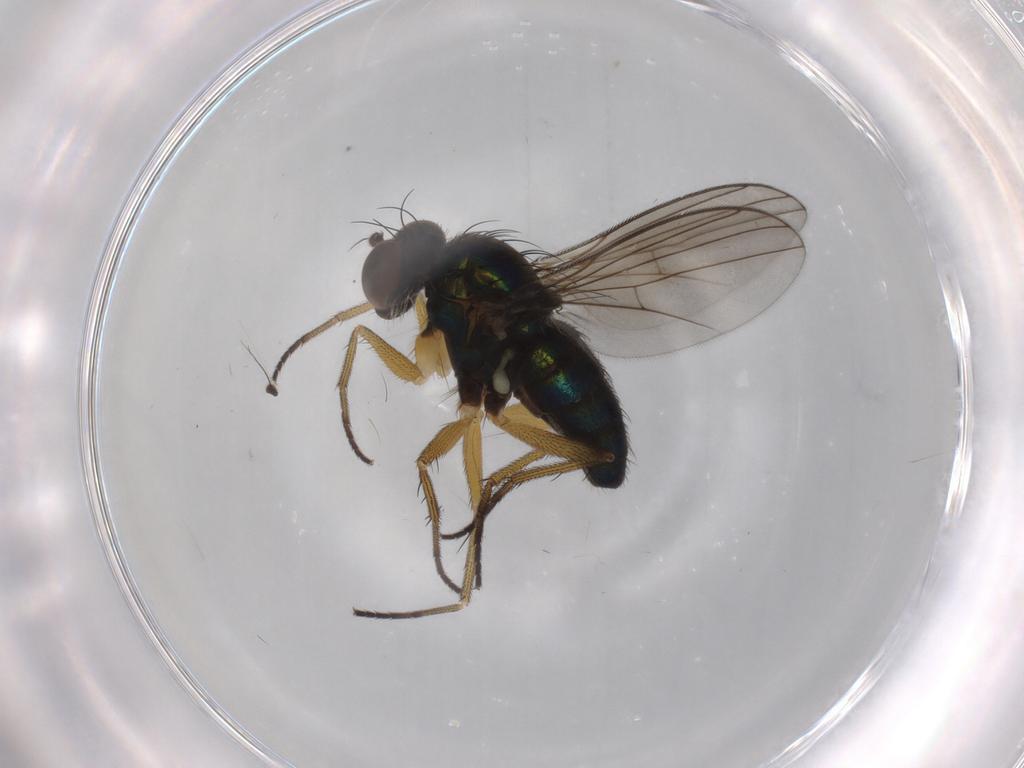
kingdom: Animalia
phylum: Arthropoda
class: Insecta
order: Diptera
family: Dolichopodidae
